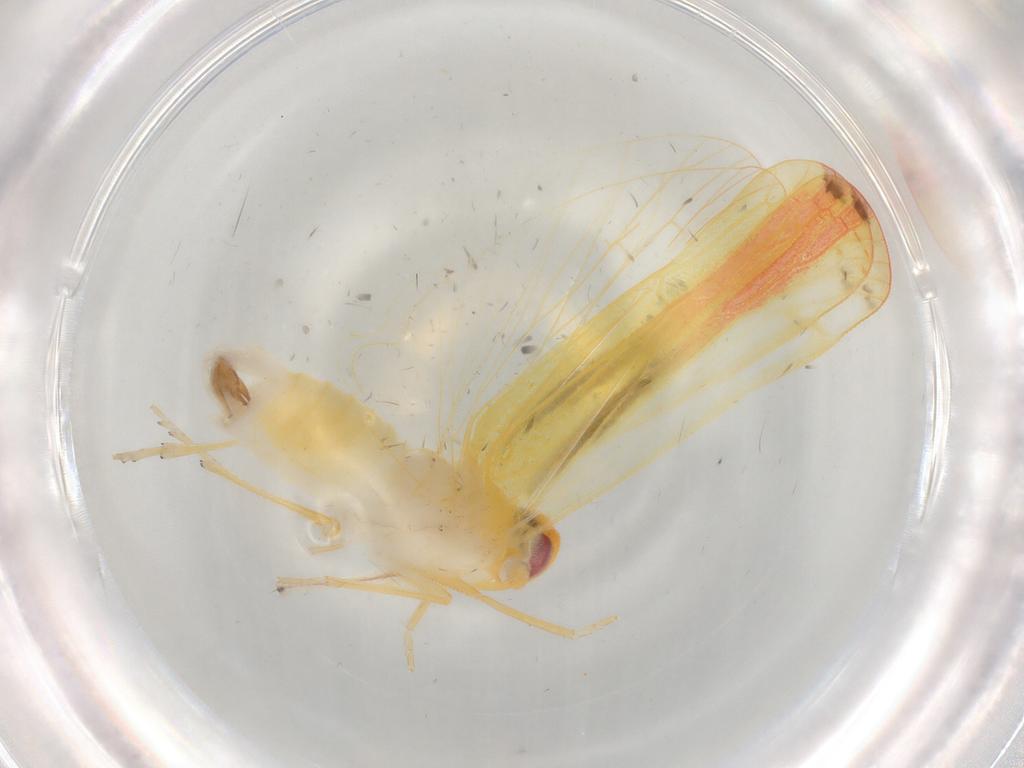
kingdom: Animalia
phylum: Arthropoda
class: Insecta
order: Hemiptera
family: Derbidae
